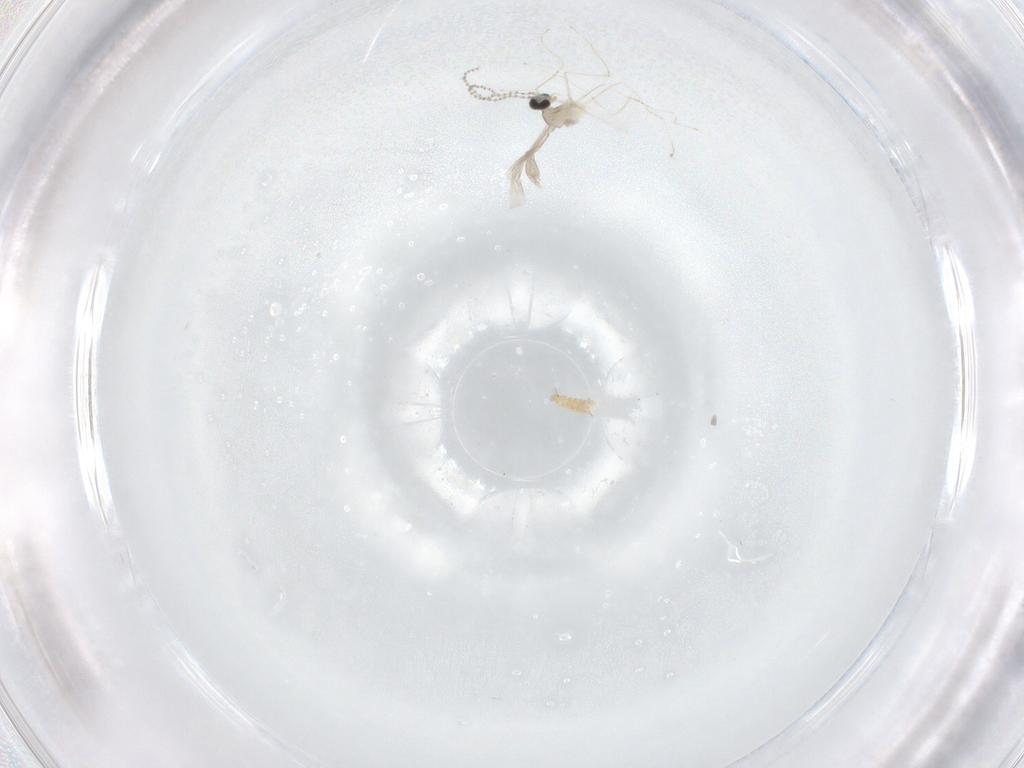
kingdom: Animalia
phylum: Arthropoda
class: Insecta
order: Diptera
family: Cecidomyiidae
